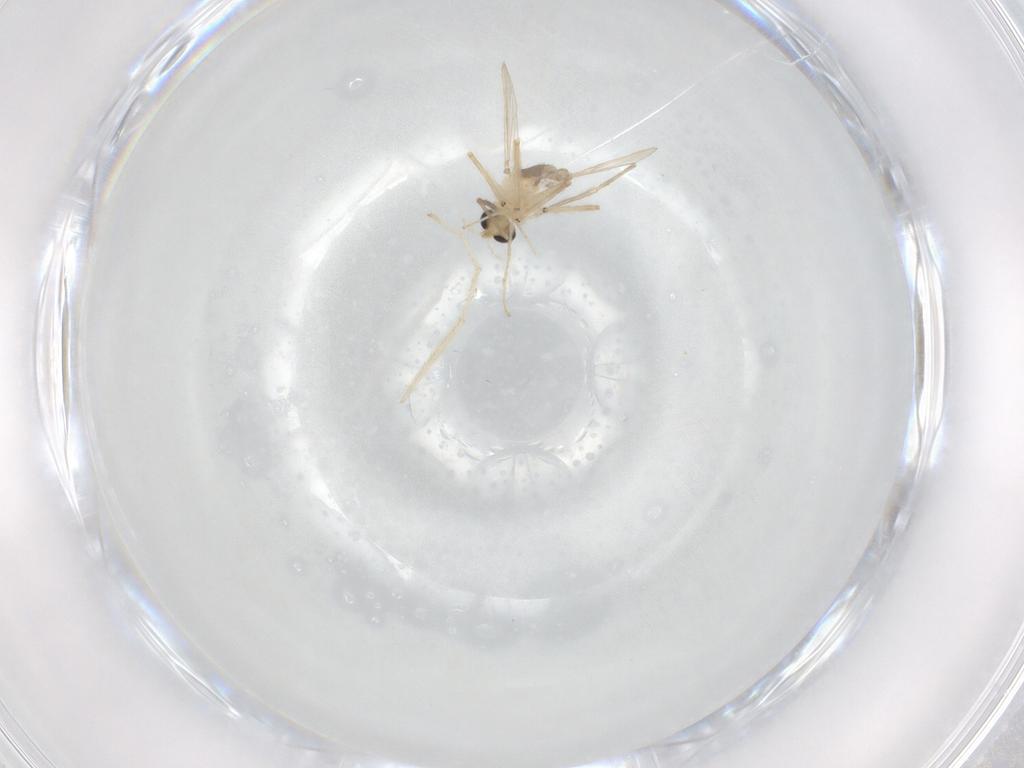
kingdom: Animalia
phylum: Arthropoda
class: Insecta
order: Diptera
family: Chironomidae
